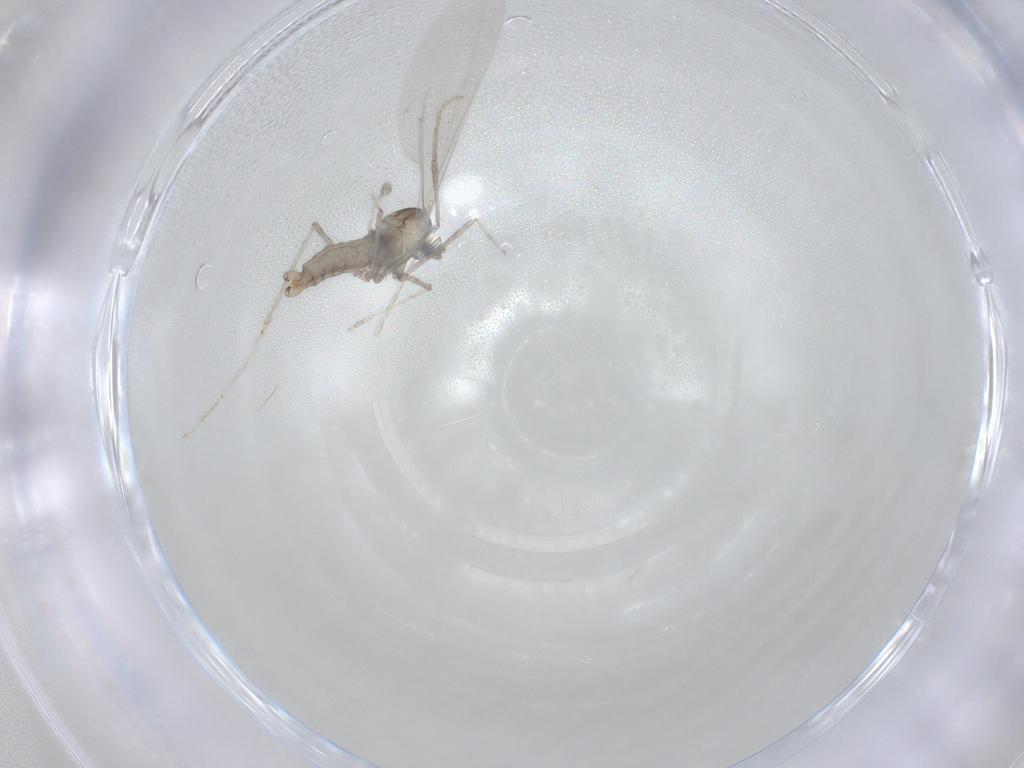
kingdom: Animalia
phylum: Arthropoda
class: Insecta
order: Diptera
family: Cecidomyiidae
